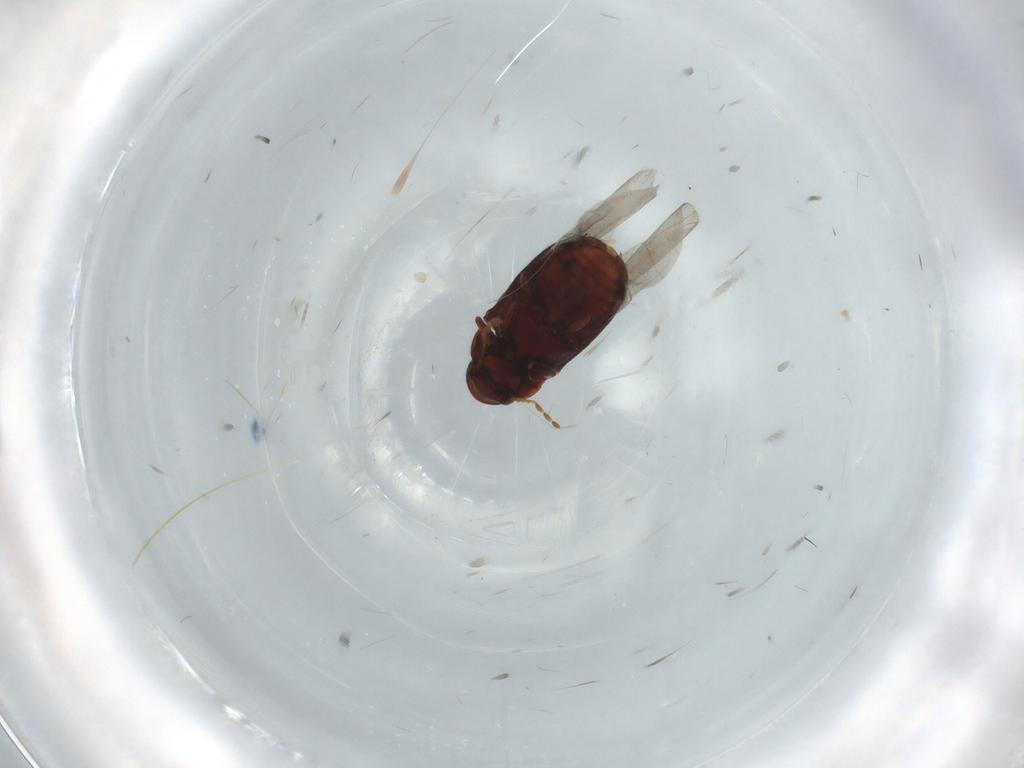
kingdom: Animalia
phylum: Arthropoda
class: Insecta
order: Coleoptera
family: Ptinidae
